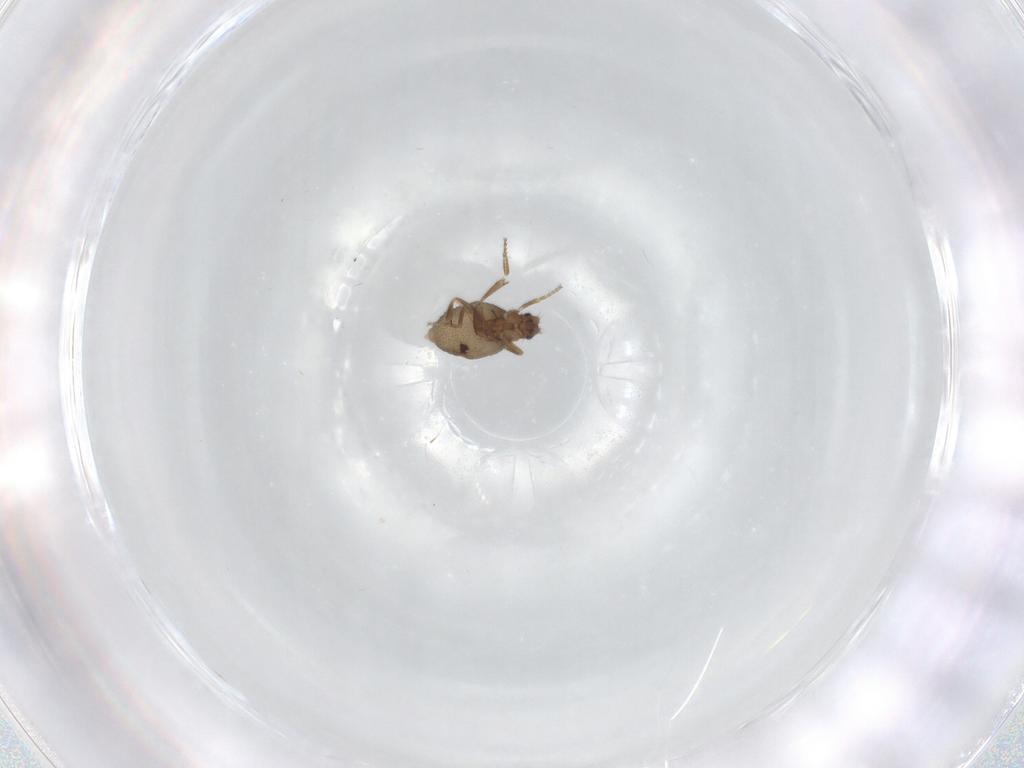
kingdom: Animalia
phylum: Arthropoda
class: Insecta
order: Diptera
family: Phoridae
